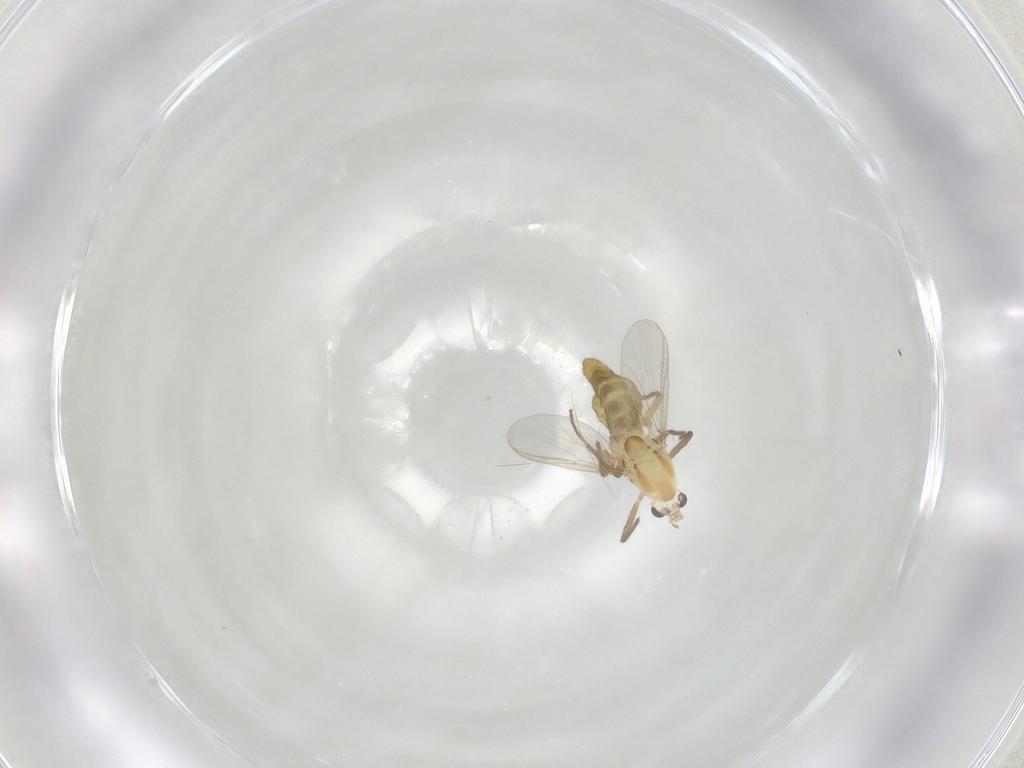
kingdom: Animalia
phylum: Arthropoda
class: Insecta
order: Diptera
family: Chironomidae
